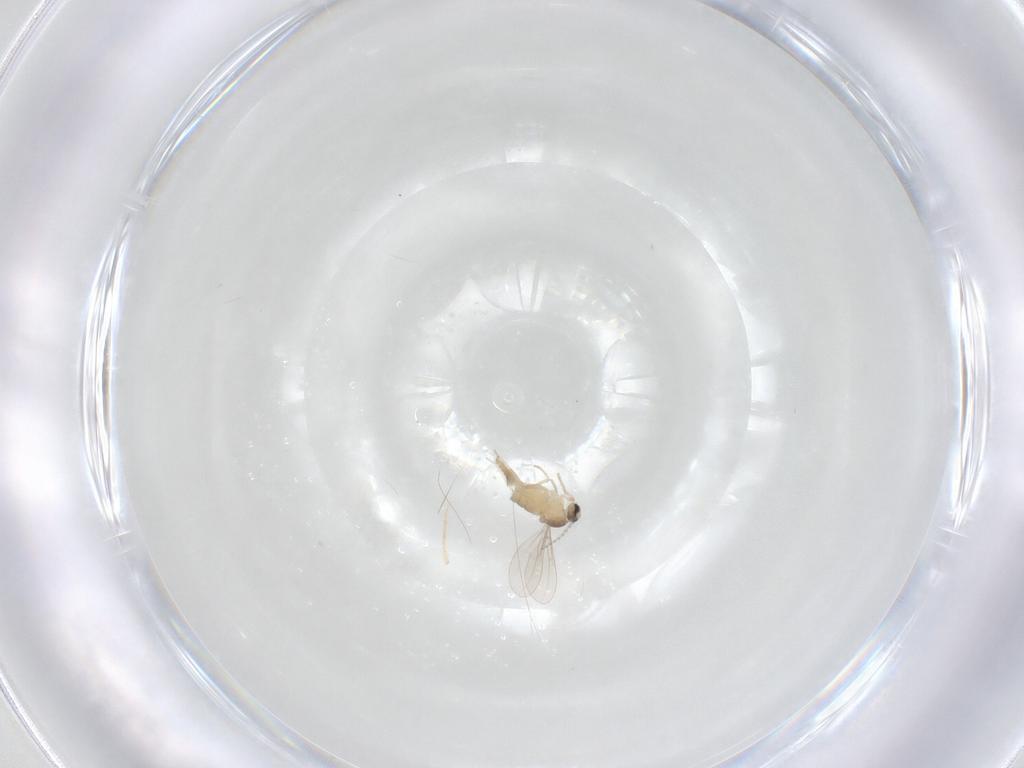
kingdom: Animalia
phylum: Arthropoda
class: Insecta
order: Diptera
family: Cecidomyiidae
